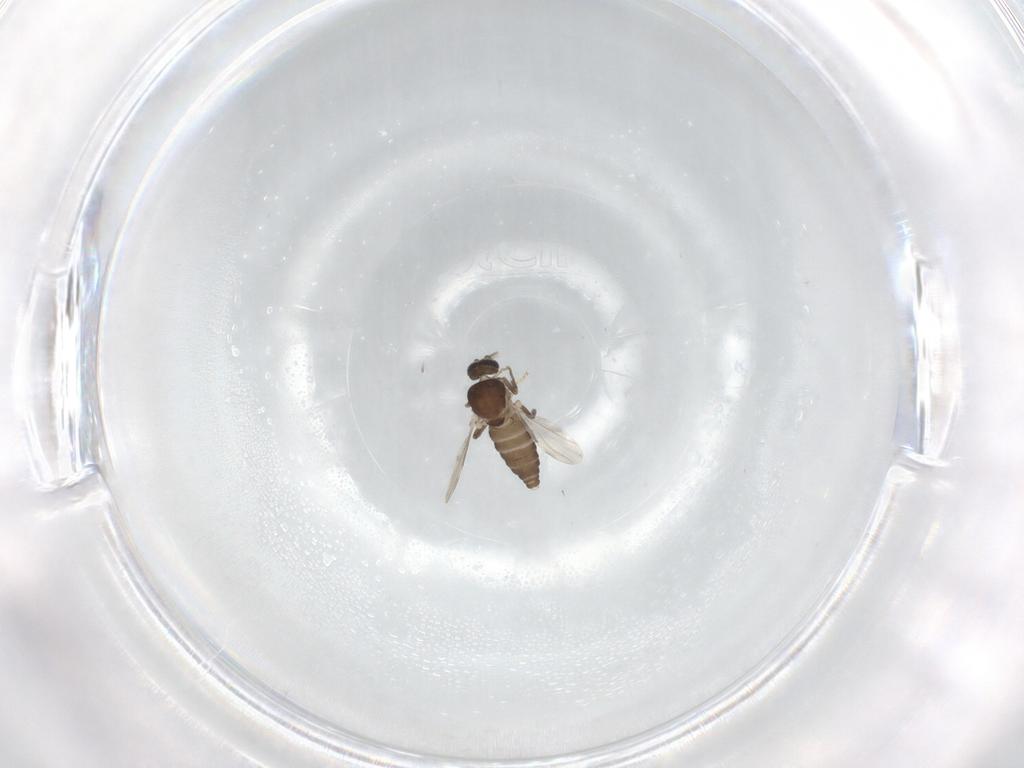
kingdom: Animalia
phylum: Arthropoda
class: Insecta
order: Diptera
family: Ceratopogonidae
